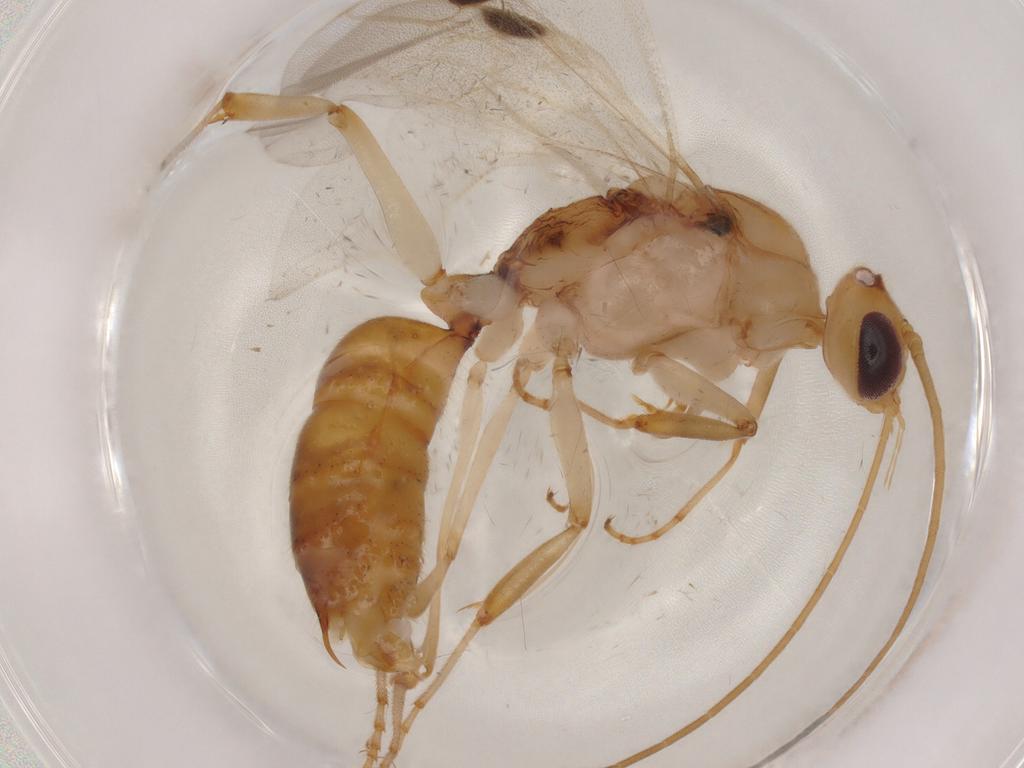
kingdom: Animalia
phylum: Arthropoda
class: Insecta
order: Hymenoptera
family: Formicidae
